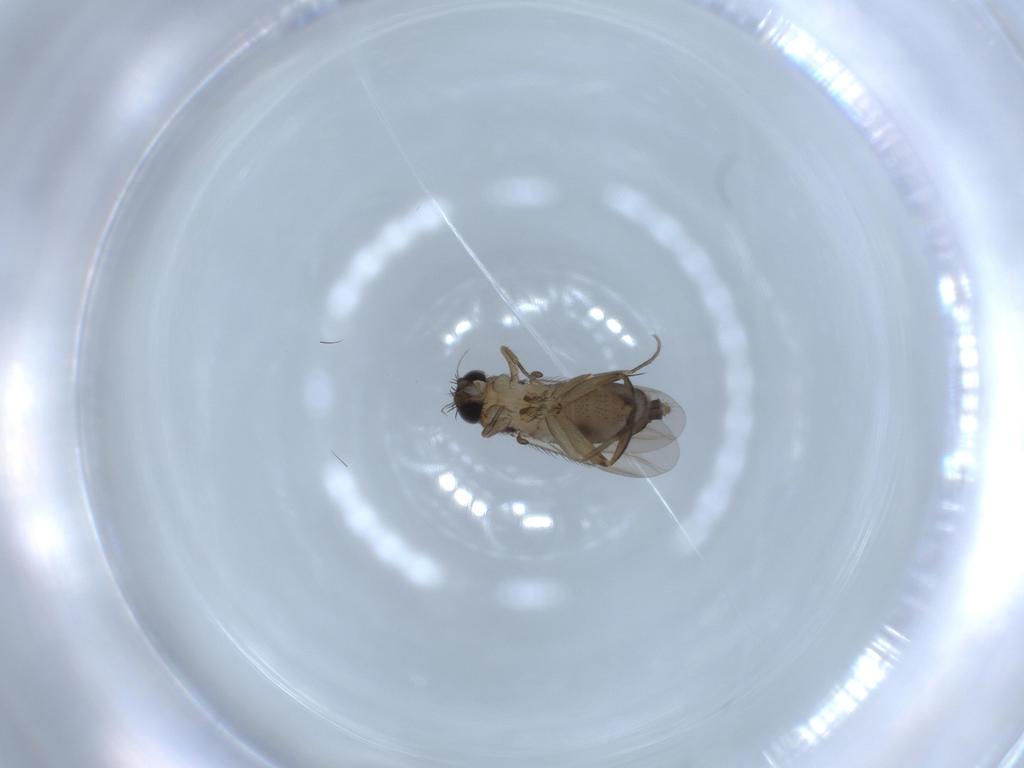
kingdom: Animalia
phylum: Arthropoda
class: Insecta
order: Diptera
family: Phoridae
